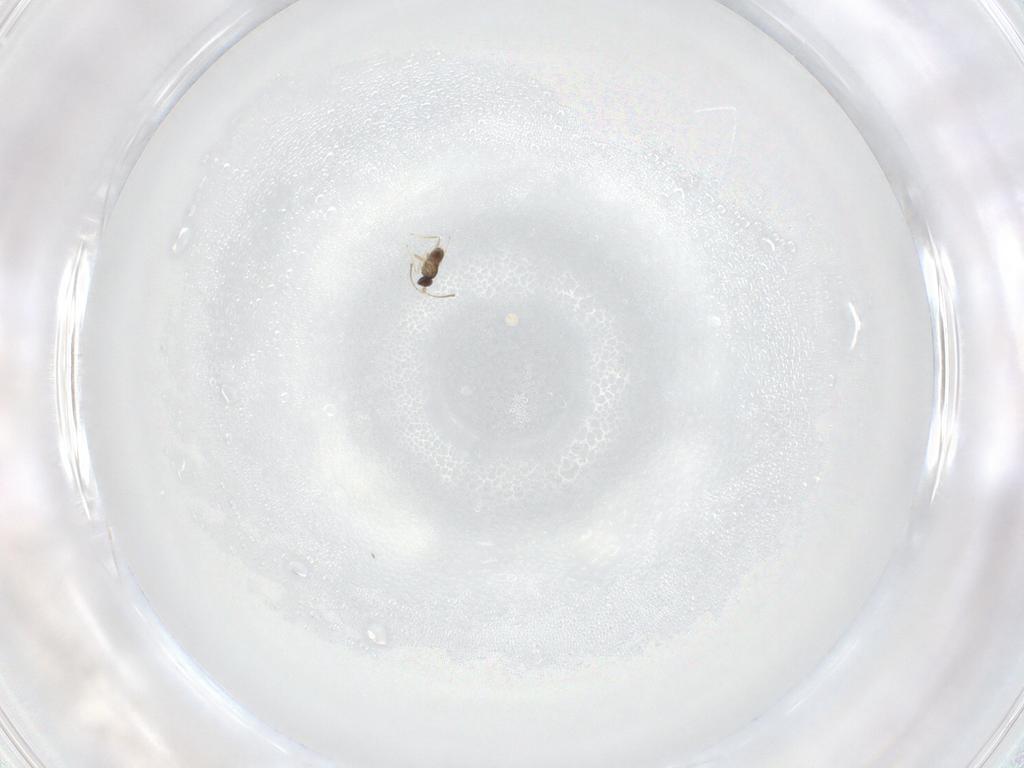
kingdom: Animalia
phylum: Arthropoda
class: Insecta
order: Hymenoptera
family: Mymaridae
